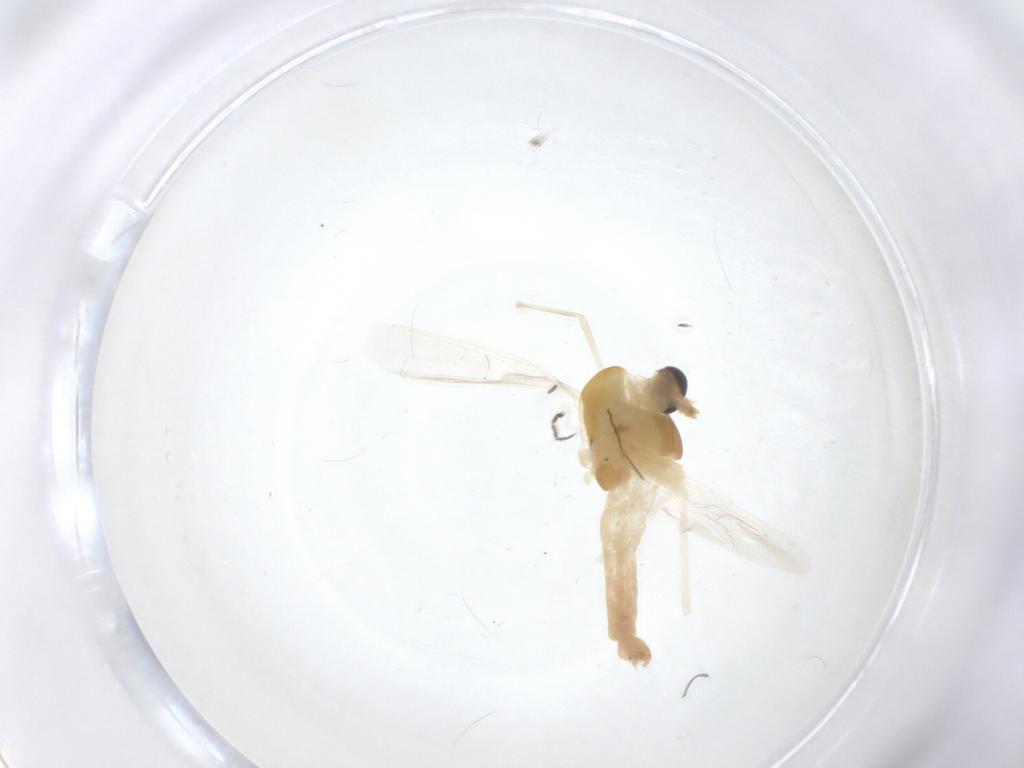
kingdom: Animalia
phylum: Arthropoda
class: Insecta
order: Diptera
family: Chironomidae
